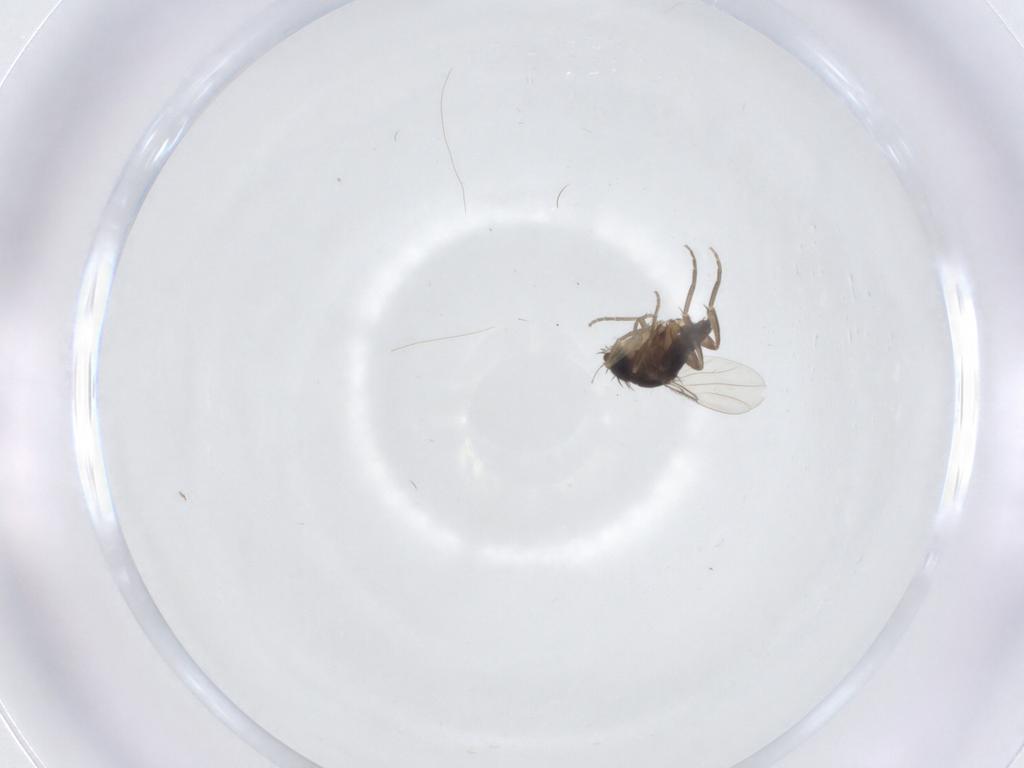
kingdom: Animalia
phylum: Arthropoda
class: Insecta
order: Diptera
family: Phoridae
